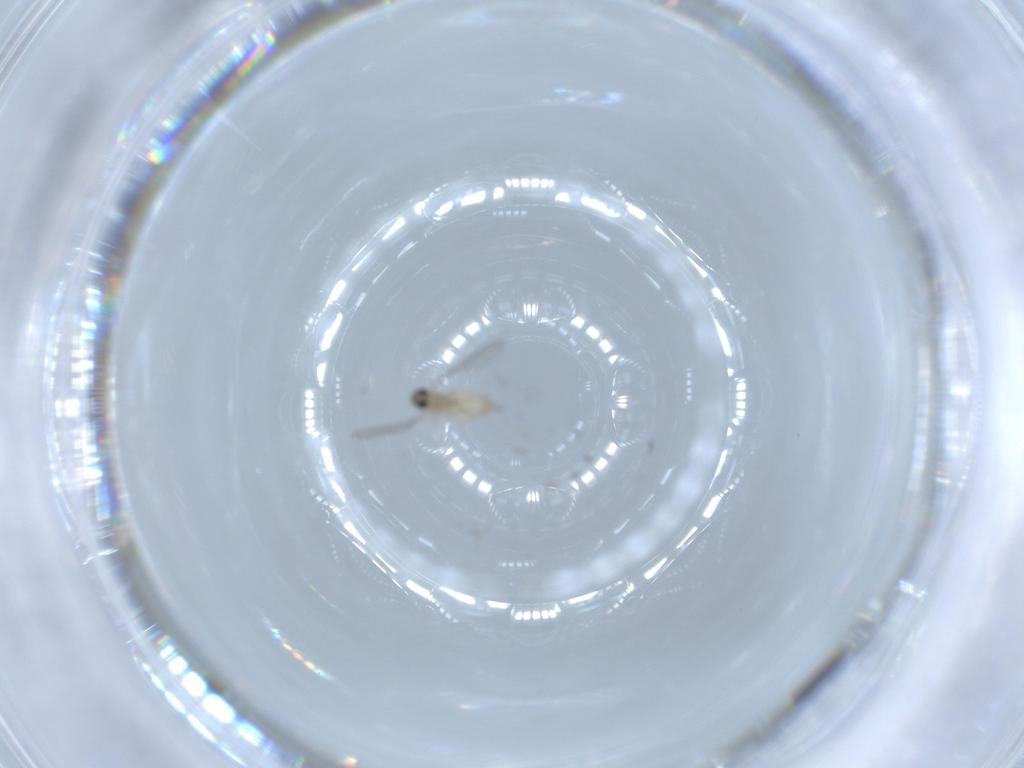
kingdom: Animalia
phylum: Arthropoda
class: Insecta
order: Diptera
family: Cecidomyiidae
